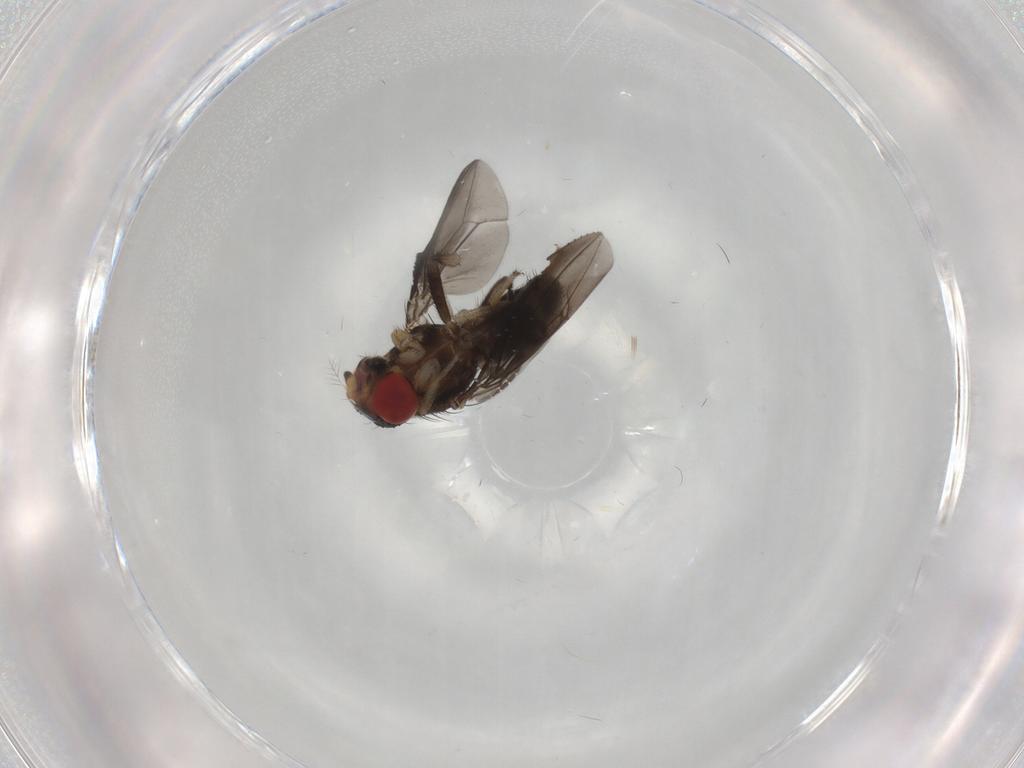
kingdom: Animalia
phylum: Arthropoda
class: Insecta
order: Diptera
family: Sciaridae
